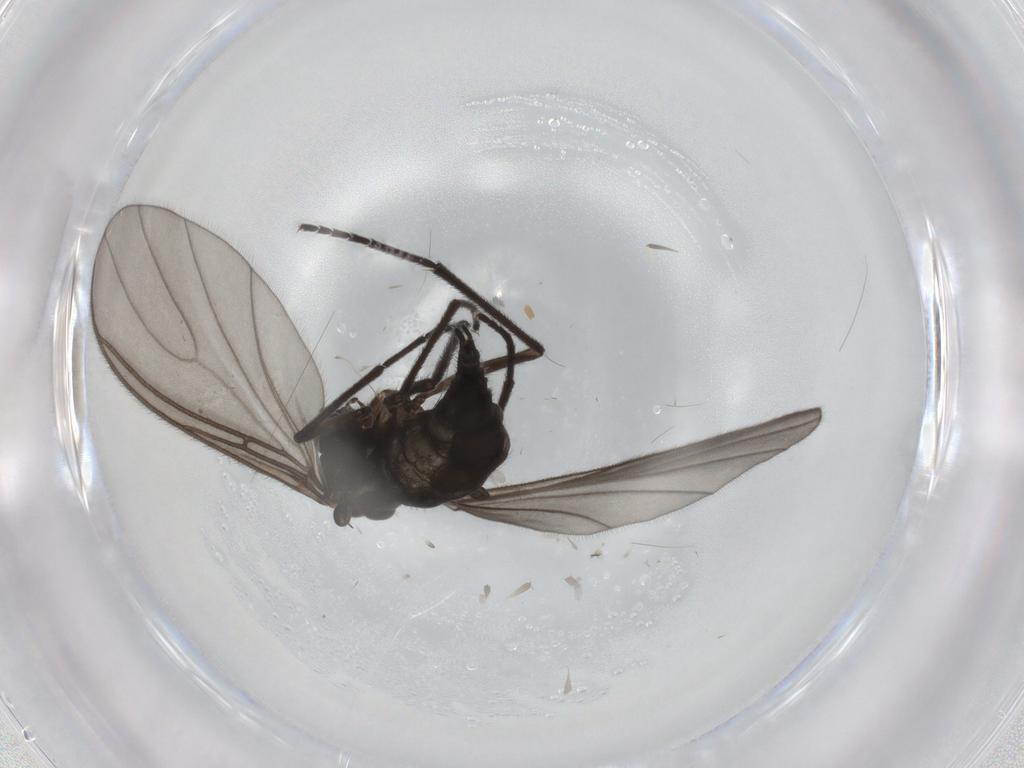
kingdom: Animalia
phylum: Arthropoda
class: Insecta
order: Diptera
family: Sciaridae
